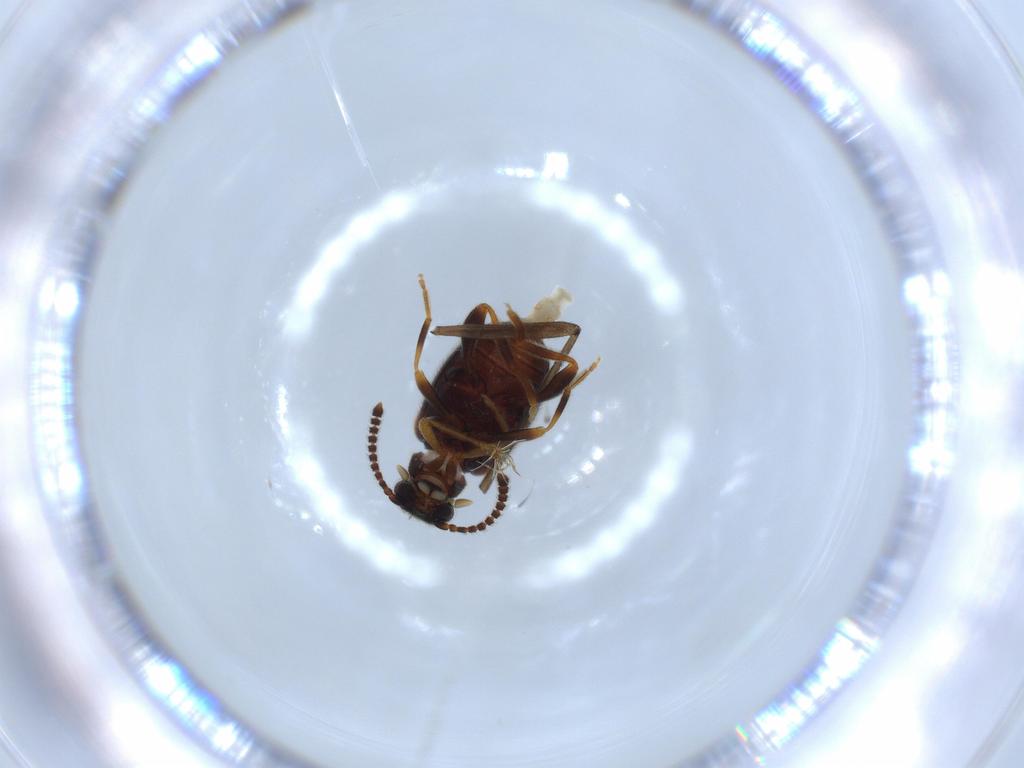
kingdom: Animalia
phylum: Arthropoda
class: Insecta
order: Coleoptera
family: Aderidae
